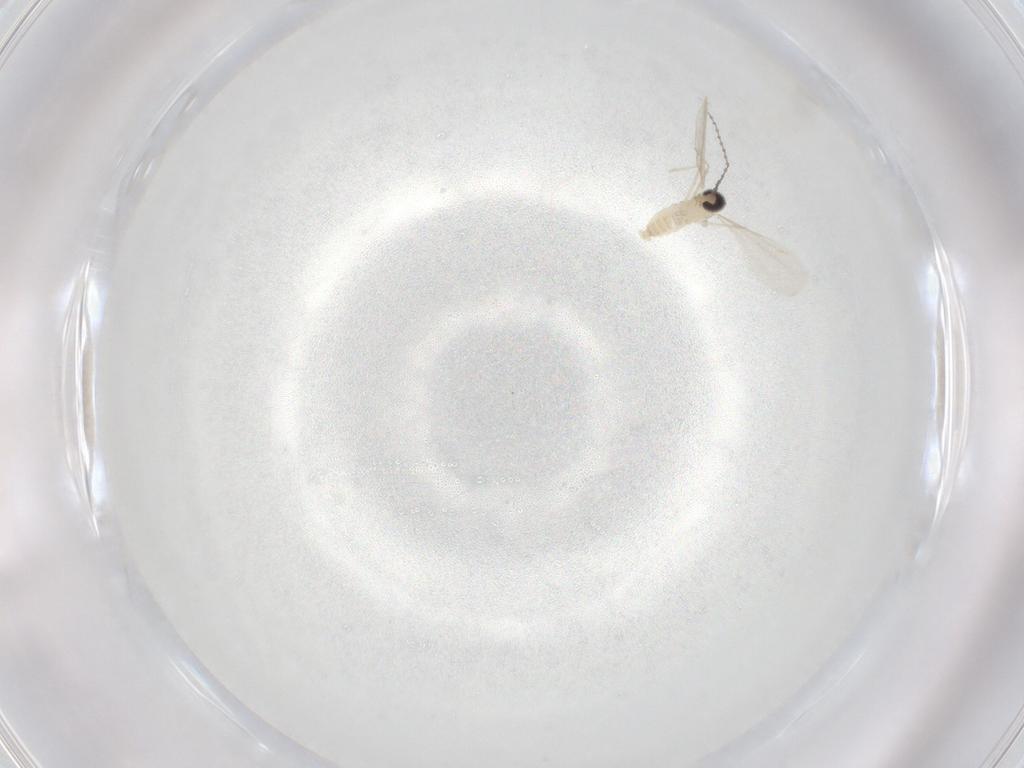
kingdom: Animalia
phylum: Arthropoda
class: Insecta
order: Diptera
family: Cecidomyiidae
